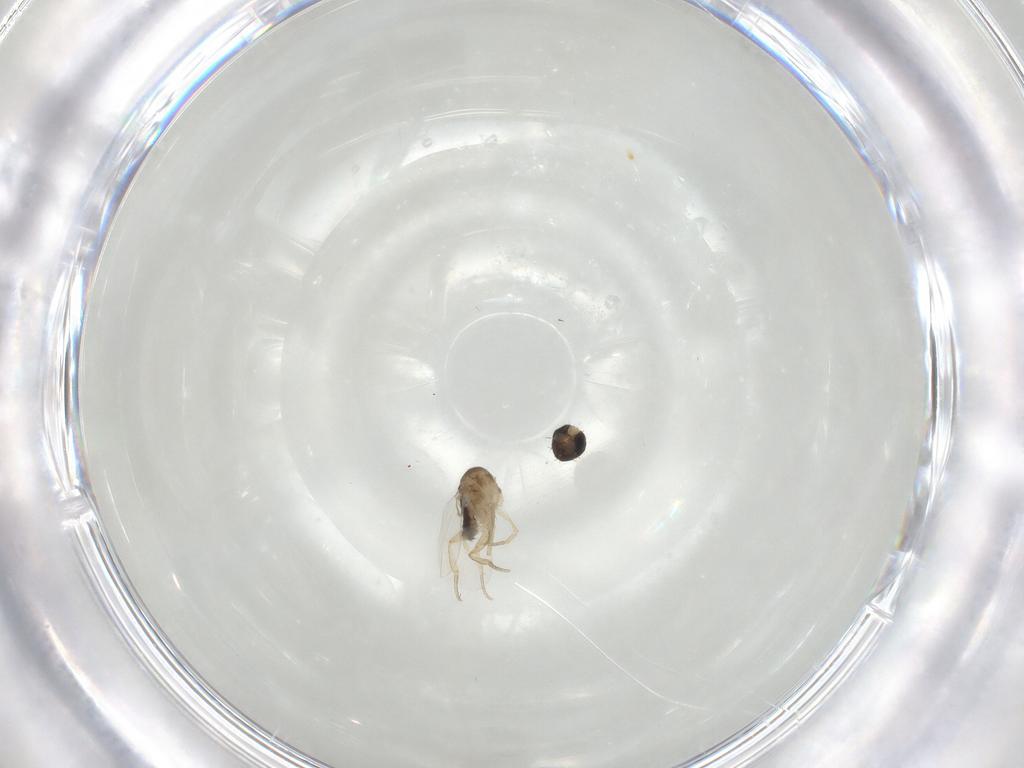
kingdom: Animalia
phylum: Arthropoda
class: Insecta
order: Diptera
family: Phoridae
